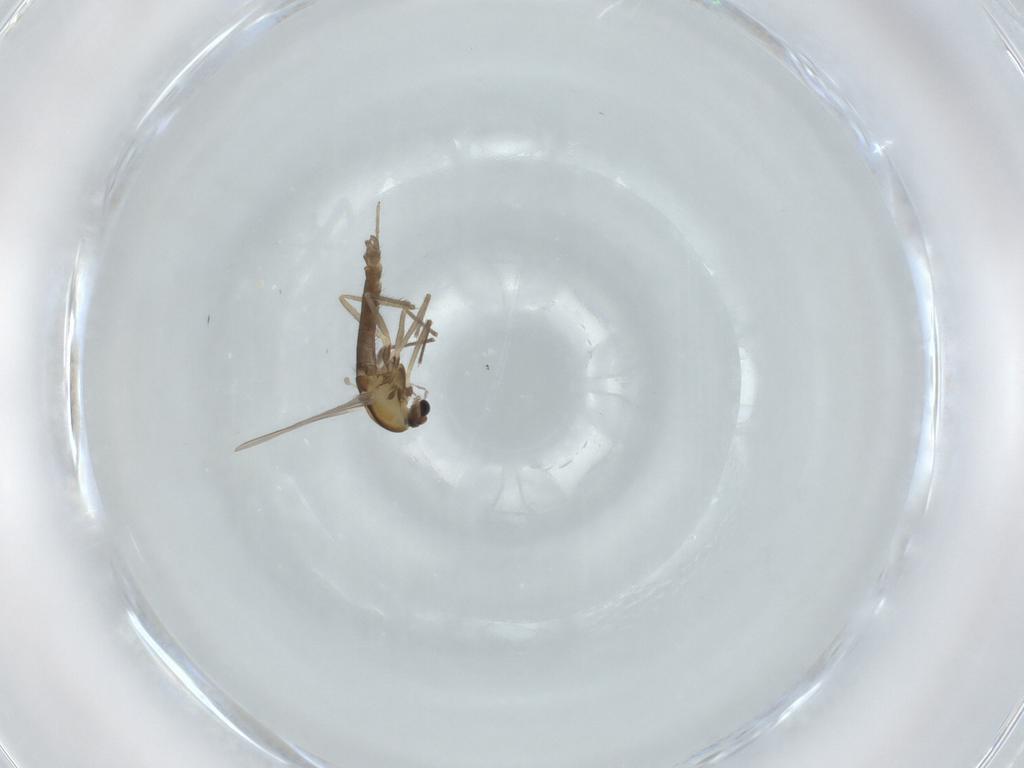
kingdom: Animalia
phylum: Arthropoda
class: Insecta
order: Diptera
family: Chironomidae
